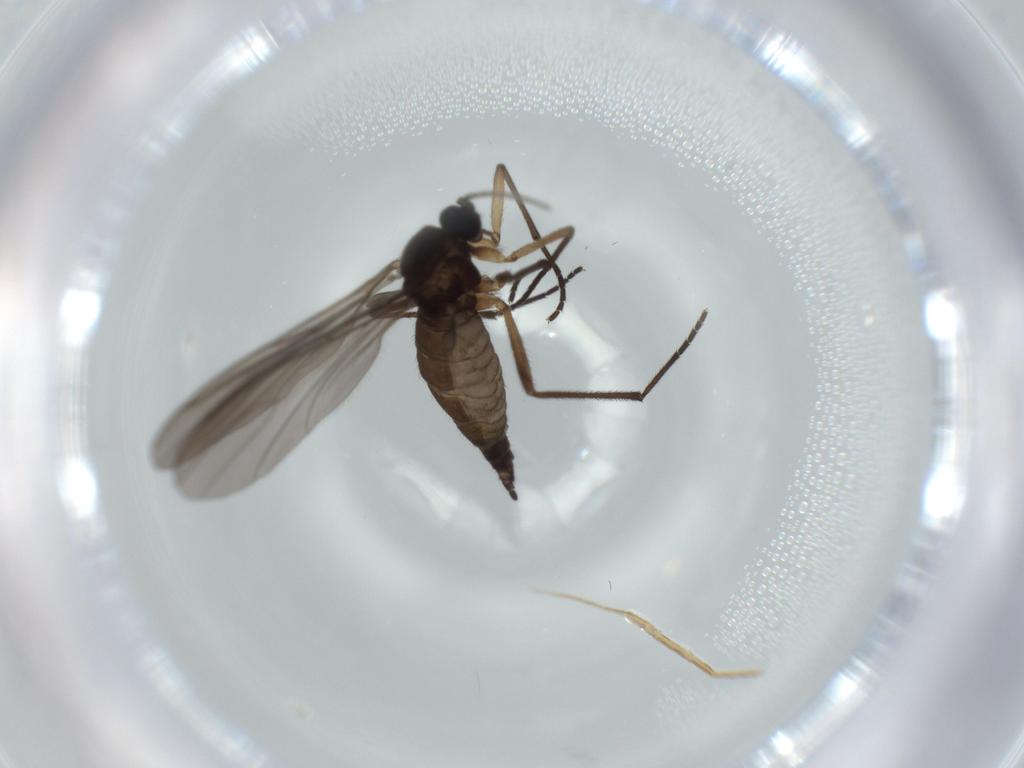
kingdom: Animalia
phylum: Arthropoda
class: Insecta
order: Diptera
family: Sciaridae
